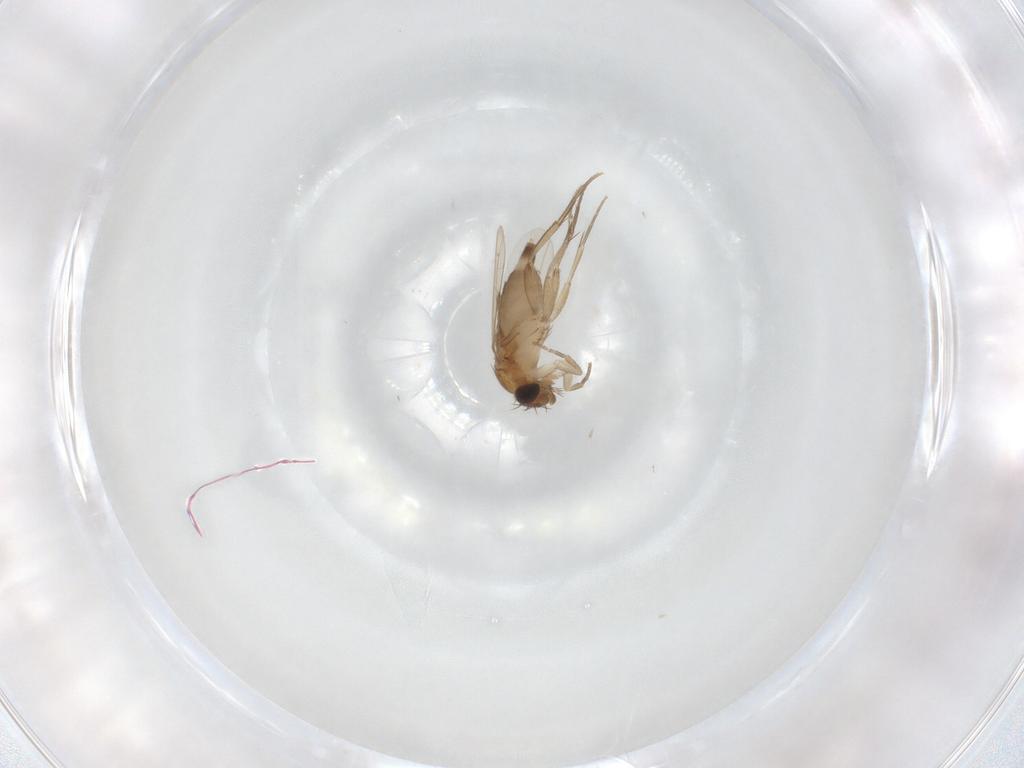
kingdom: Animalia
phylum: Arthropoda
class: Insecta
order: Diptera
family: Phoridae
